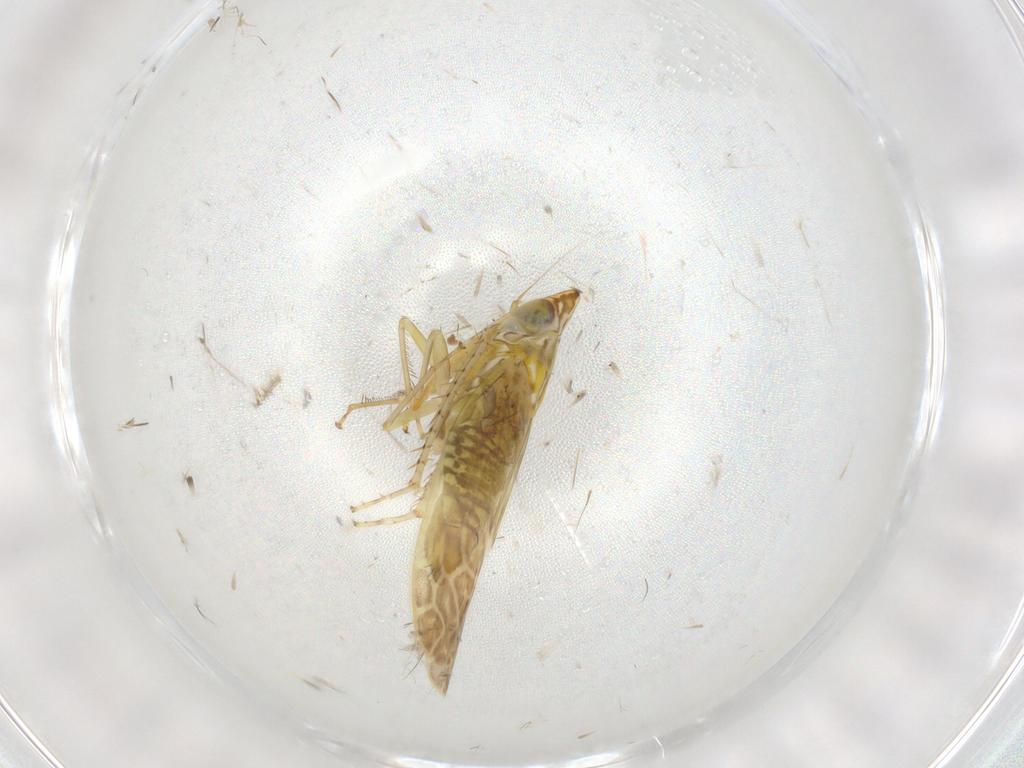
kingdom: Animalia
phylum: Arthropoda
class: Insecta
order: Hemiptera
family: Cicadellidae
